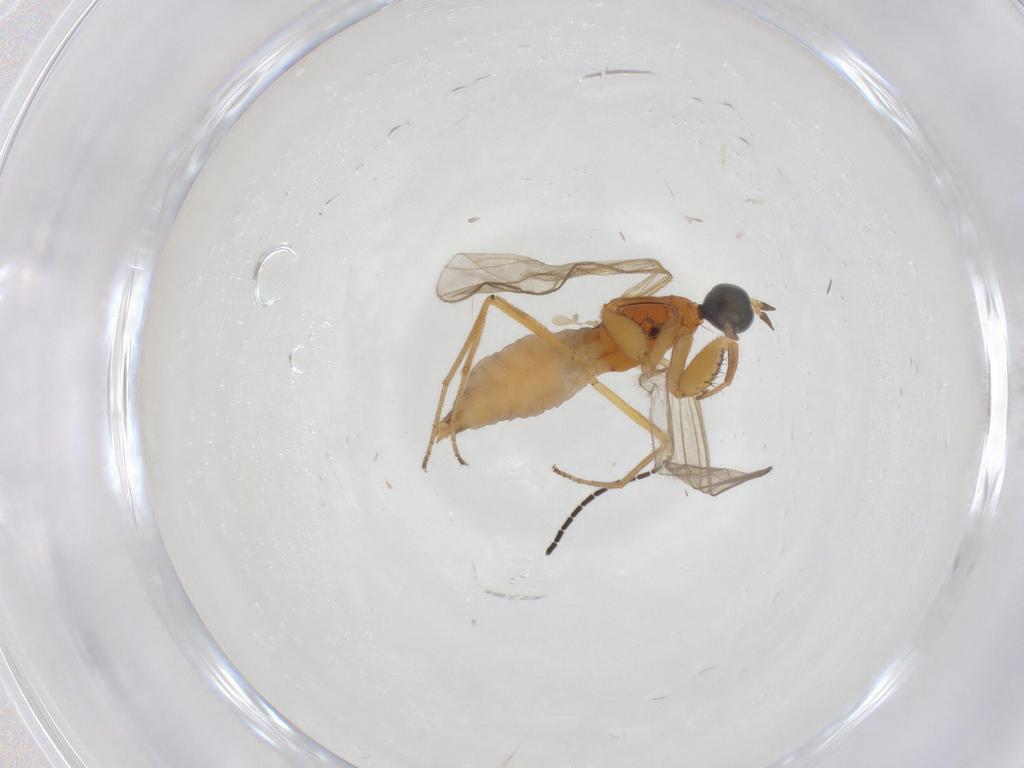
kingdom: Animalia
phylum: Arthropoda
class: Insecta
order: Diptera
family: Chironomidae
